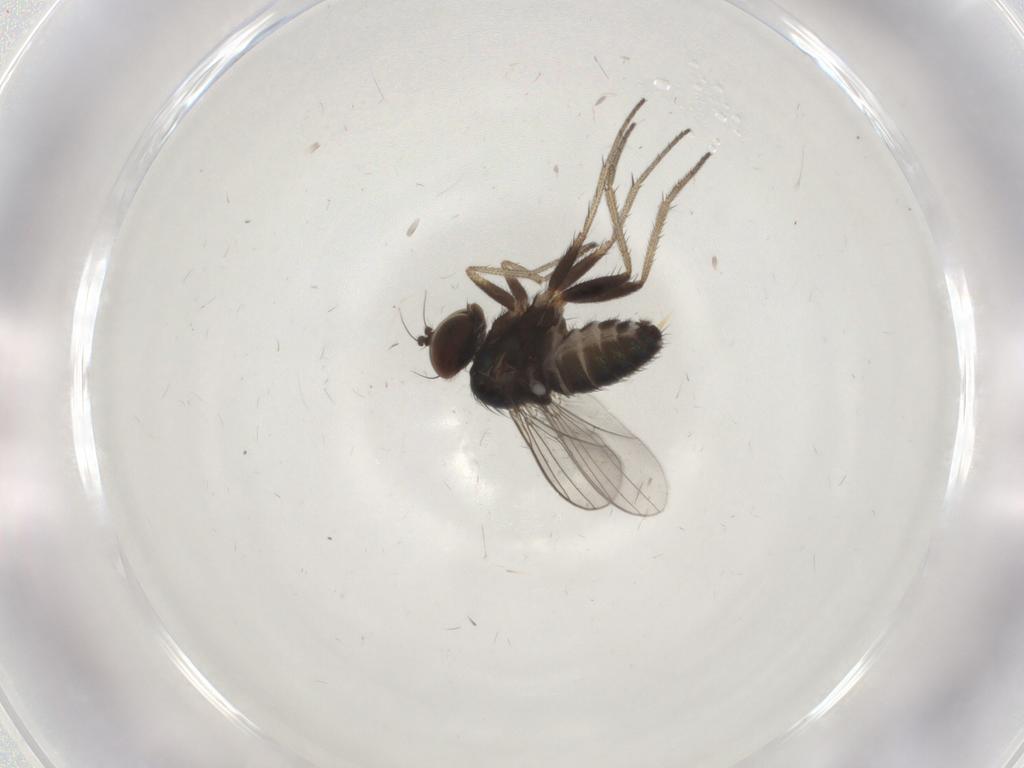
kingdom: Animalia
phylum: Arthropoda
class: Insecta
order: Diptera
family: Dolichopodidae
